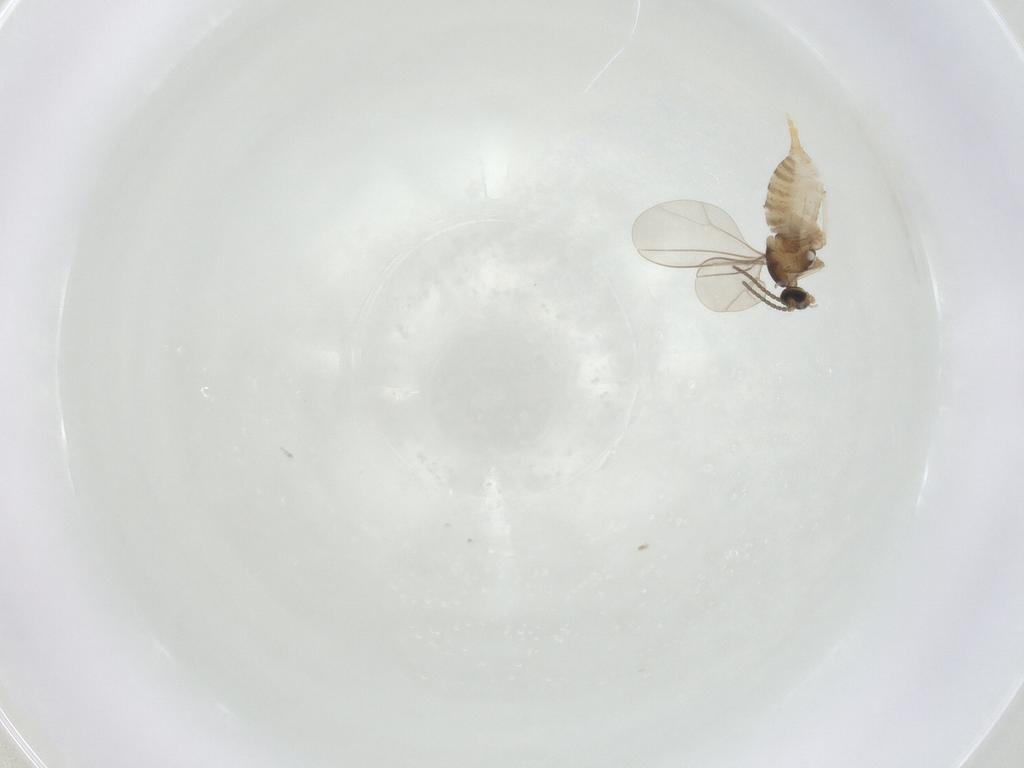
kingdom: Animalia
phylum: Arthropoda
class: Insecta
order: Diptera
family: Cecidomyiidae
